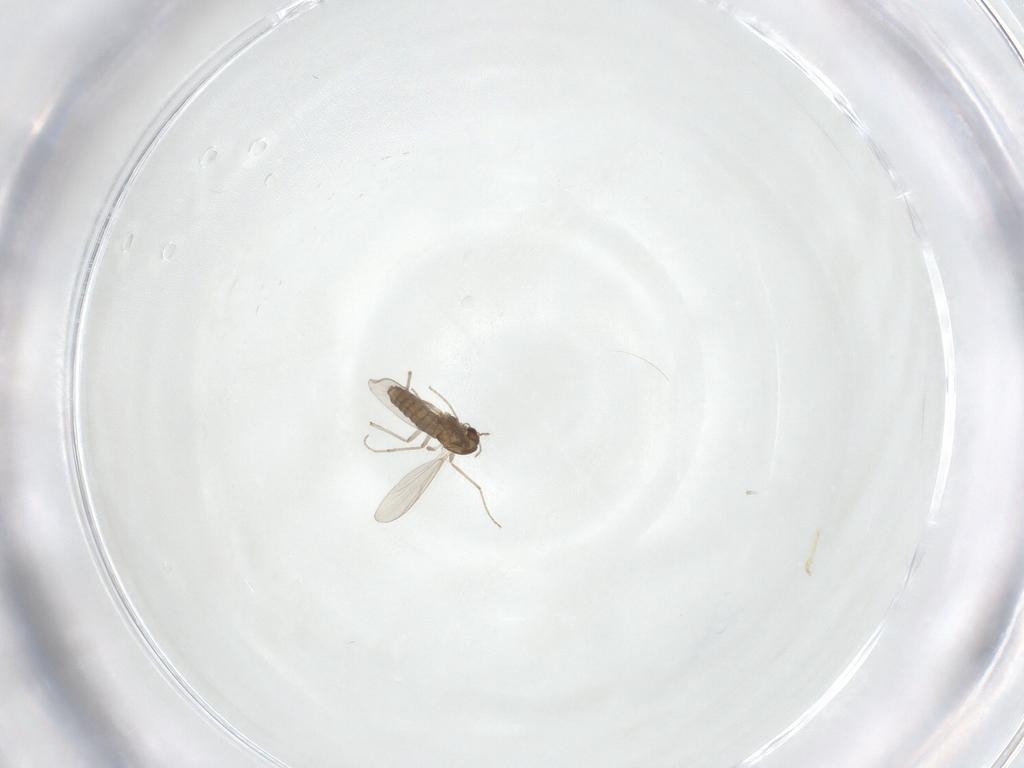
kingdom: Animalia
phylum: Arthropoda
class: Insecta
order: Diptera
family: Chironomidae
